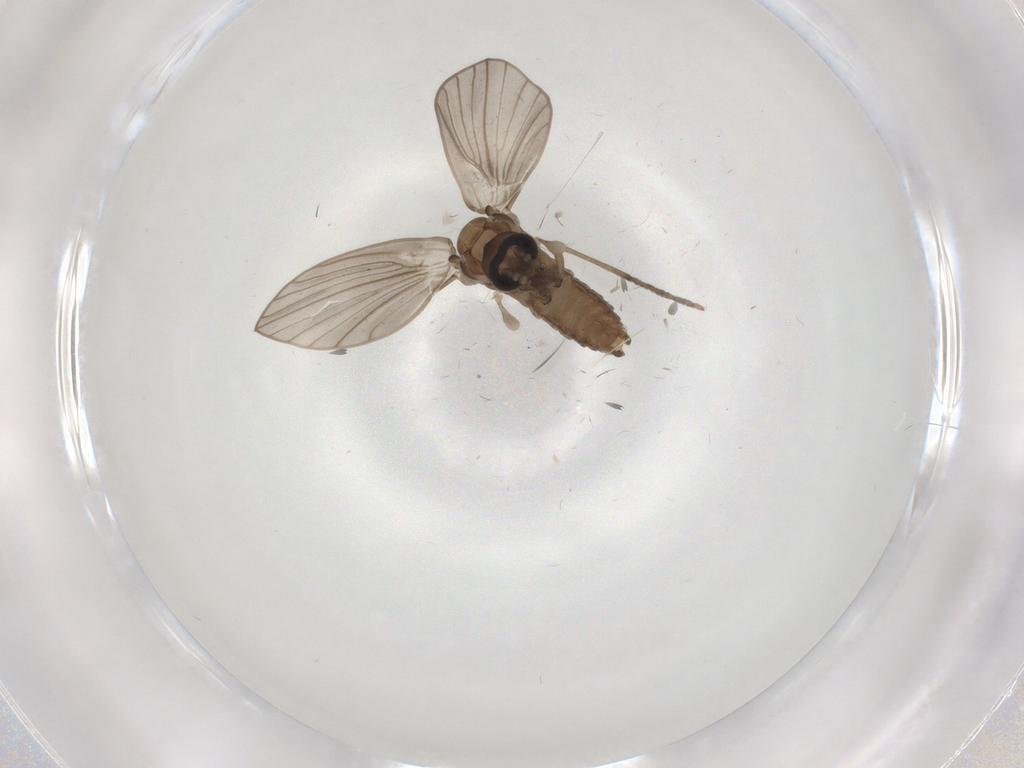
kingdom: Animalia
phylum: Arthropoda
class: Insecta
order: Diptera
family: Psychodidae
